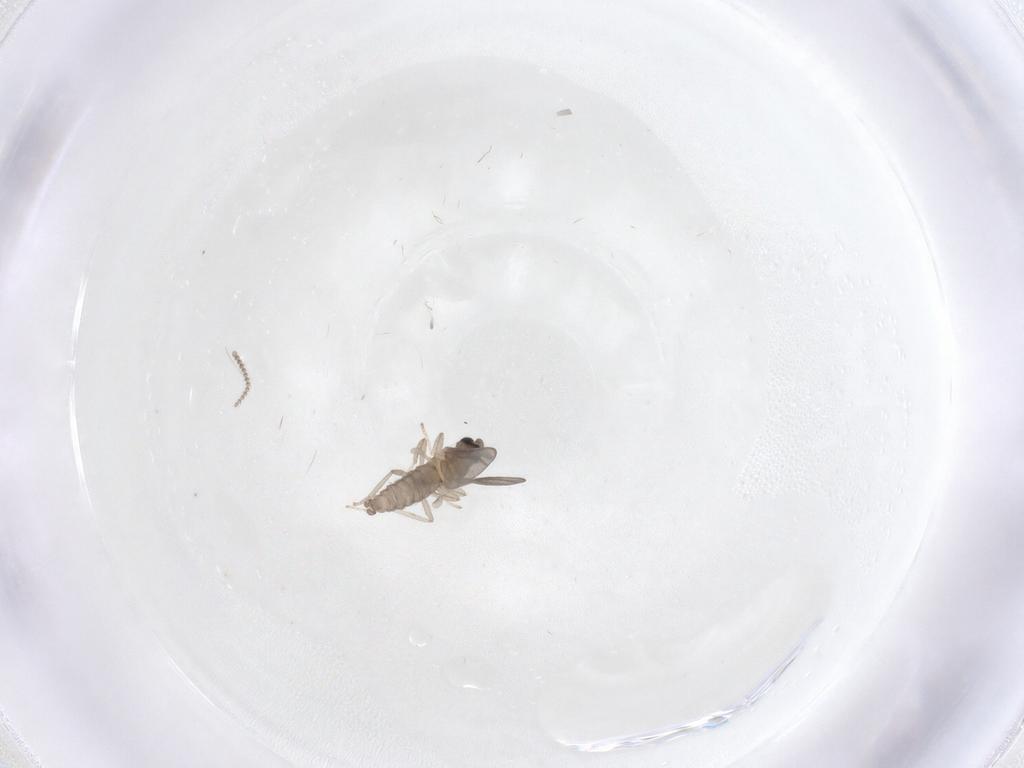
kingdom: Animalia
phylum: Arthropoda
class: Insecta
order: Diptera
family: Cecidomyiidae
